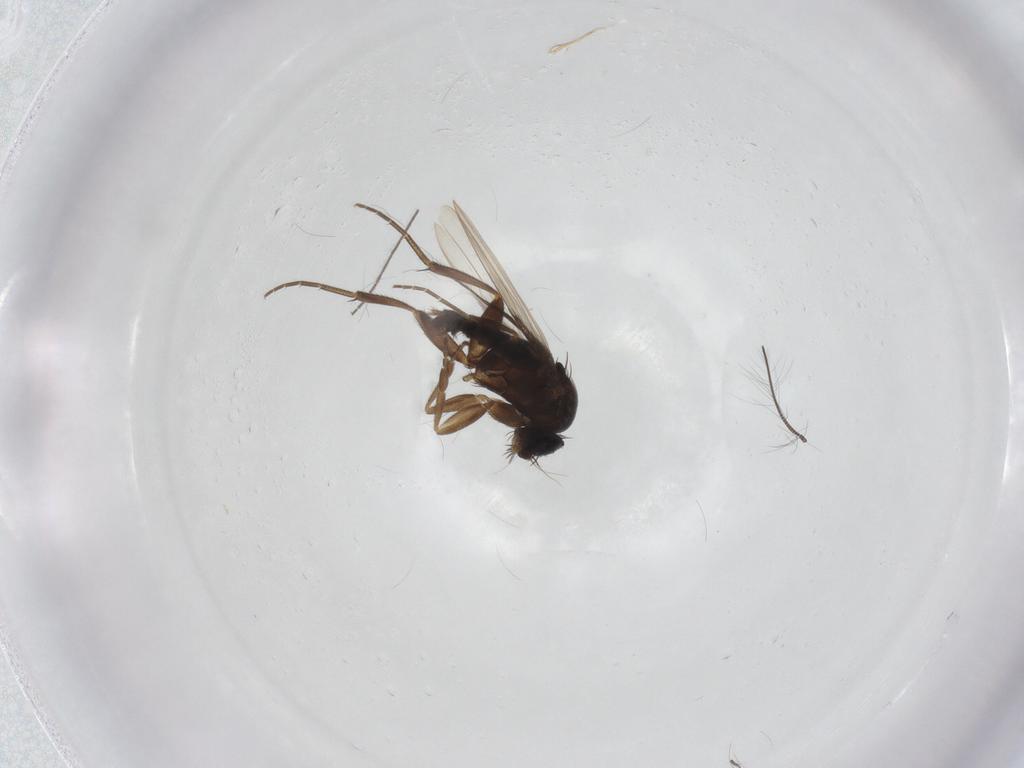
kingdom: Animalia
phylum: Arthropoda
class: Insecta
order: Diptera
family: Phoridae
